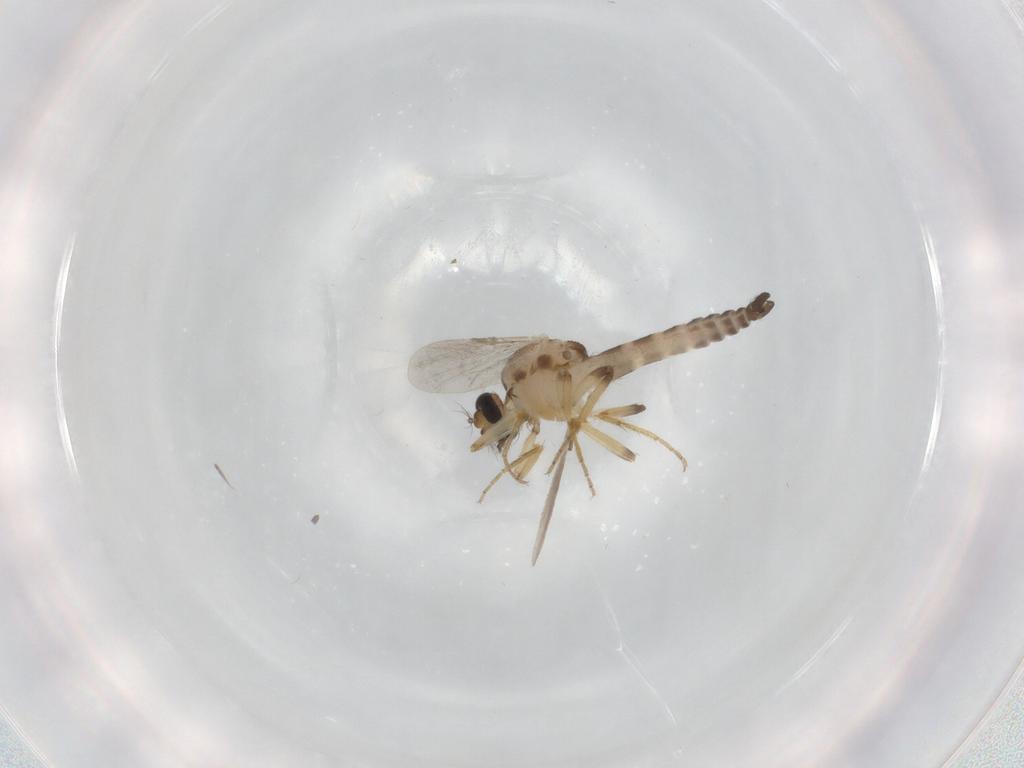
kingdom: Animalia
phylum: Arthropoda
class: Insecta
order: Diptera
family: Ceratopogonidae
